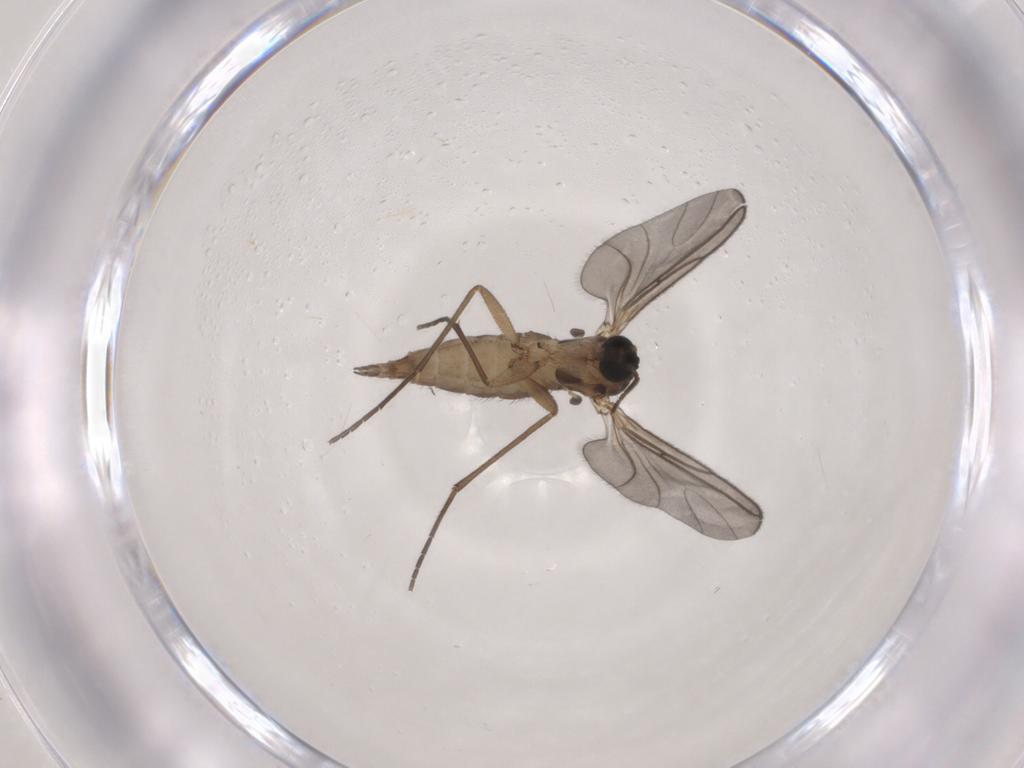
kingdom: Animalia
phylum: Arthropoda
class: Insecta
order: Diptera
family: Sciaridae
